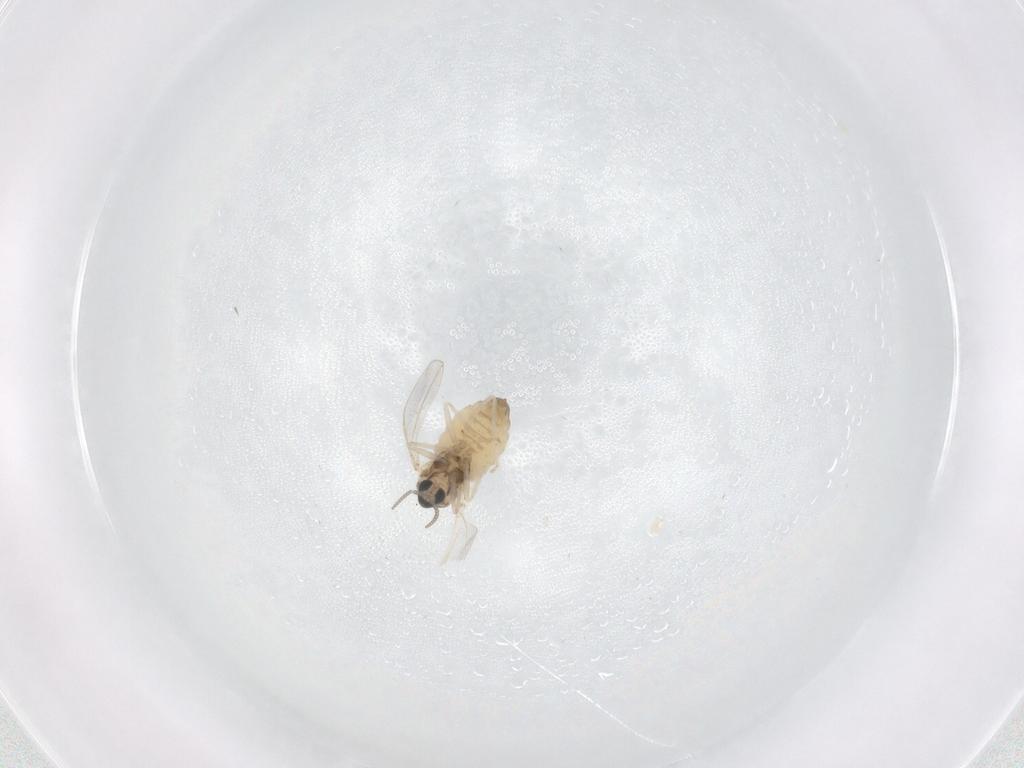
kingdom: Animalia
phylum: Arthropoda
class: Insecta
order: Diptera
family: Cecidomyiidae
